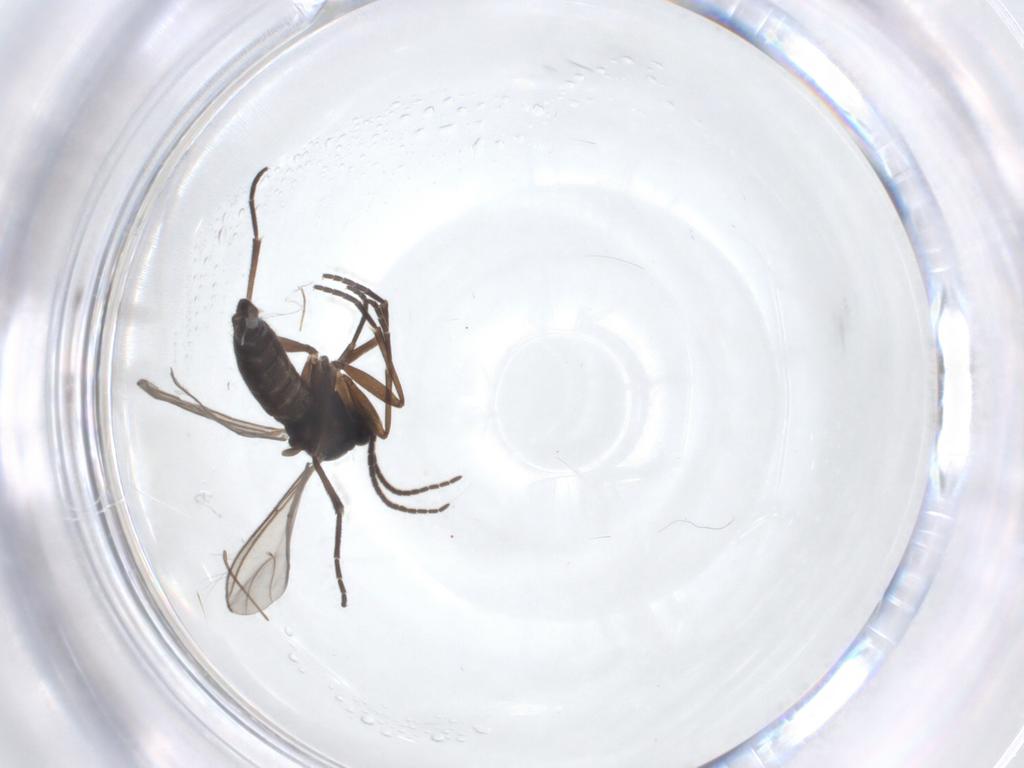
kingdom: Animalia
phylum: Arthropoda
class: Insecta
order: Diptera
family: Sciaridae
